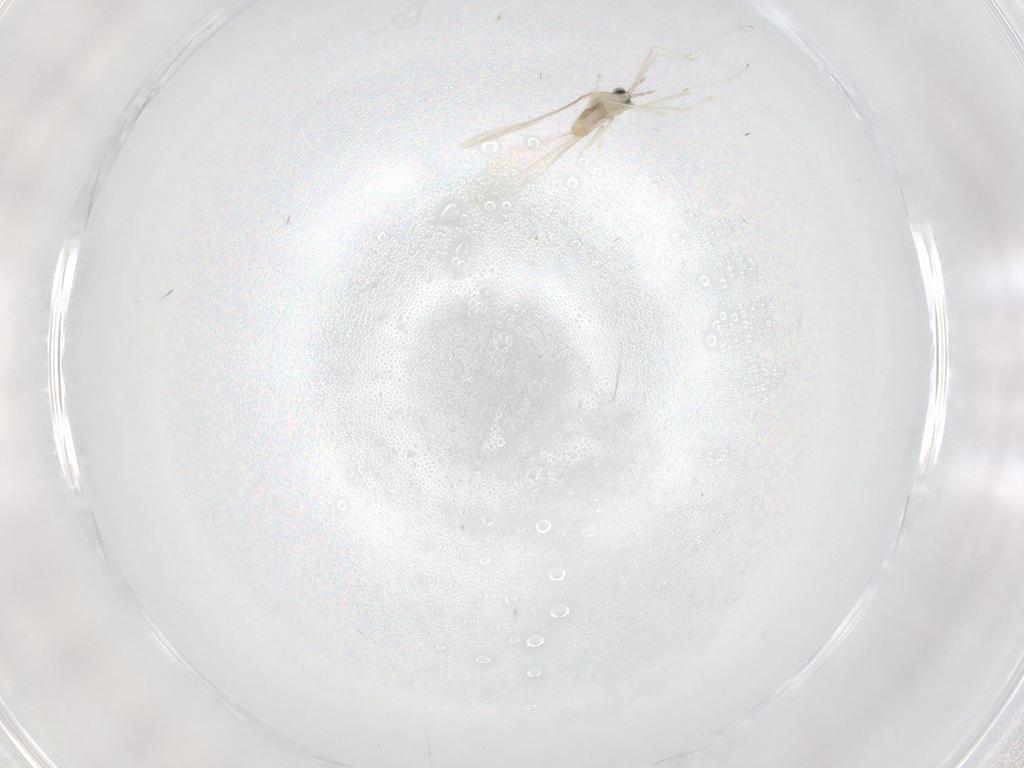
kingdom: Animalia
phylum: Arthropoda
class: Insecta
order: Diptera
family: Cecidomyiidae
